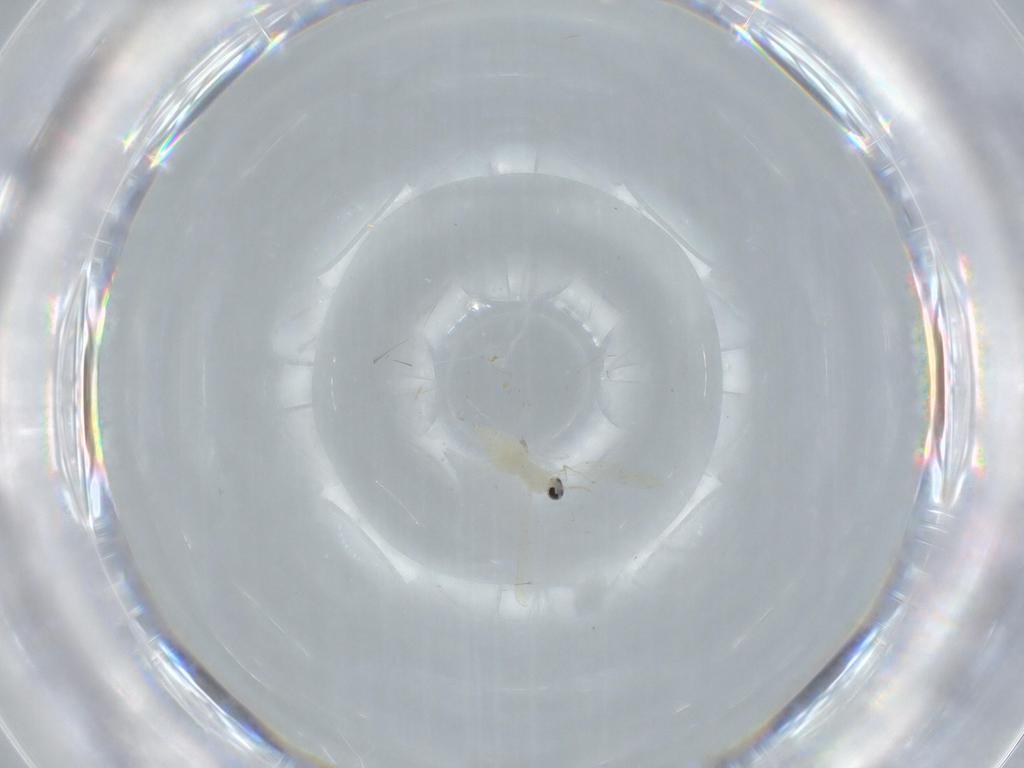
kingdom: Animalia
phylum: Arthropoda
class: Insecta
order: Diptera
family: Cecidomyiidae
